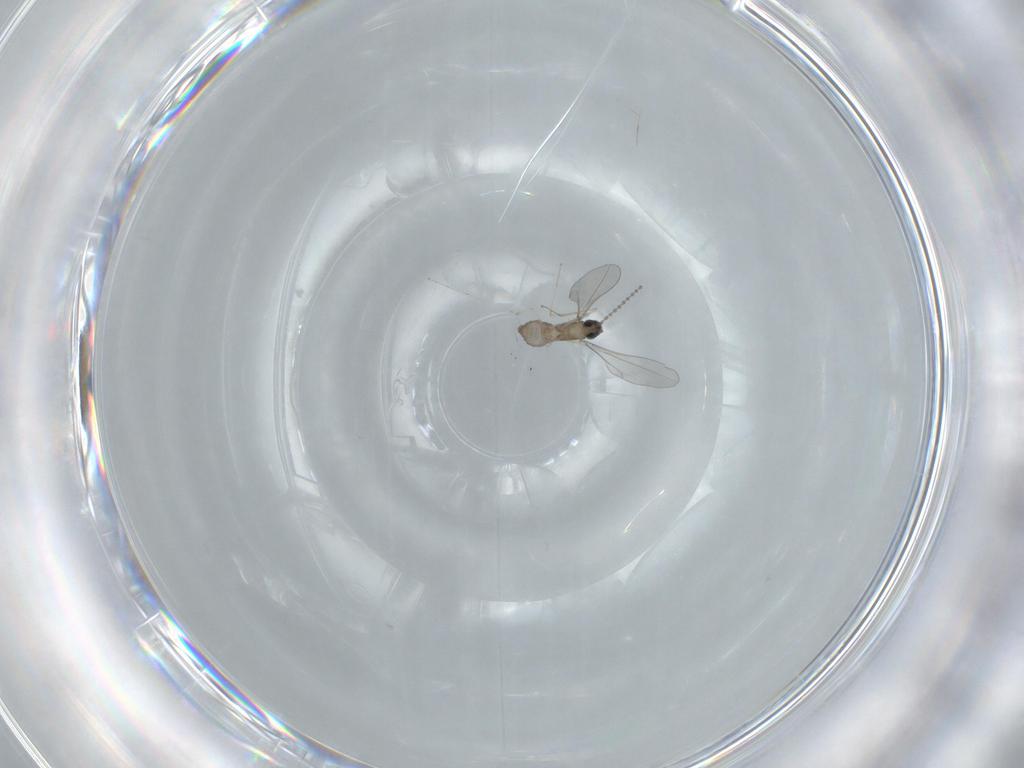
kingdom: Animalia
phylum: Arthropoda
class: Insecta
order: Diptera
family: Cecidomyiidae
